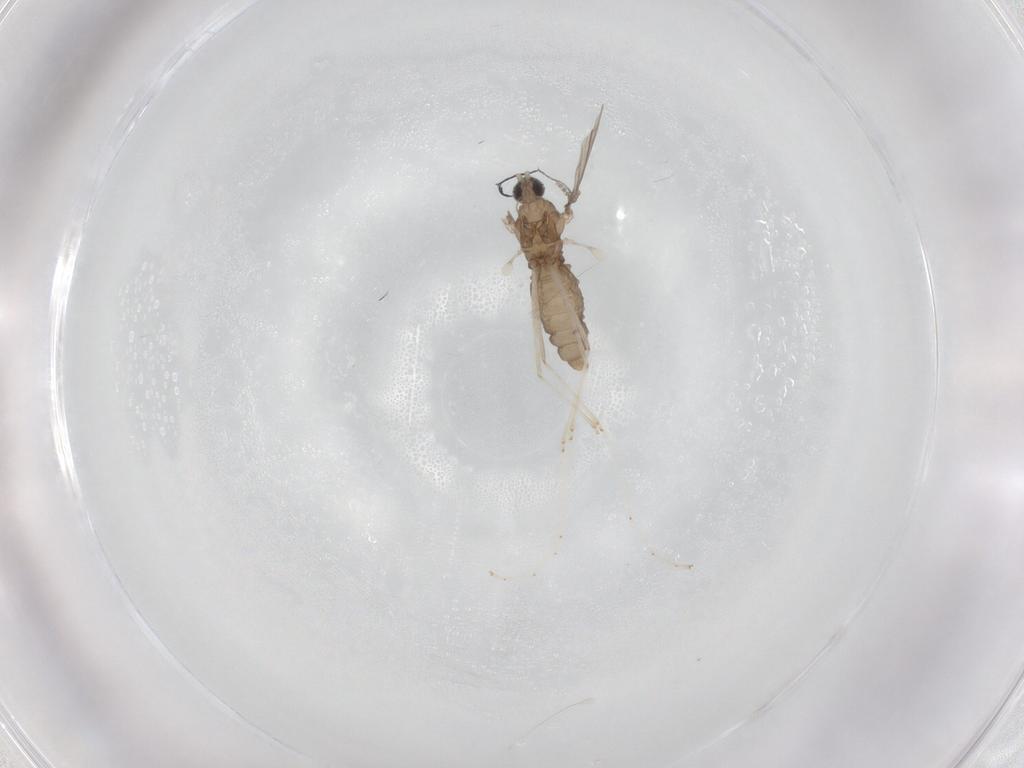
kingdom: Animalia
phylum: Arthropoda
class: Insecta
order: Diptera
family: Psychodidae
